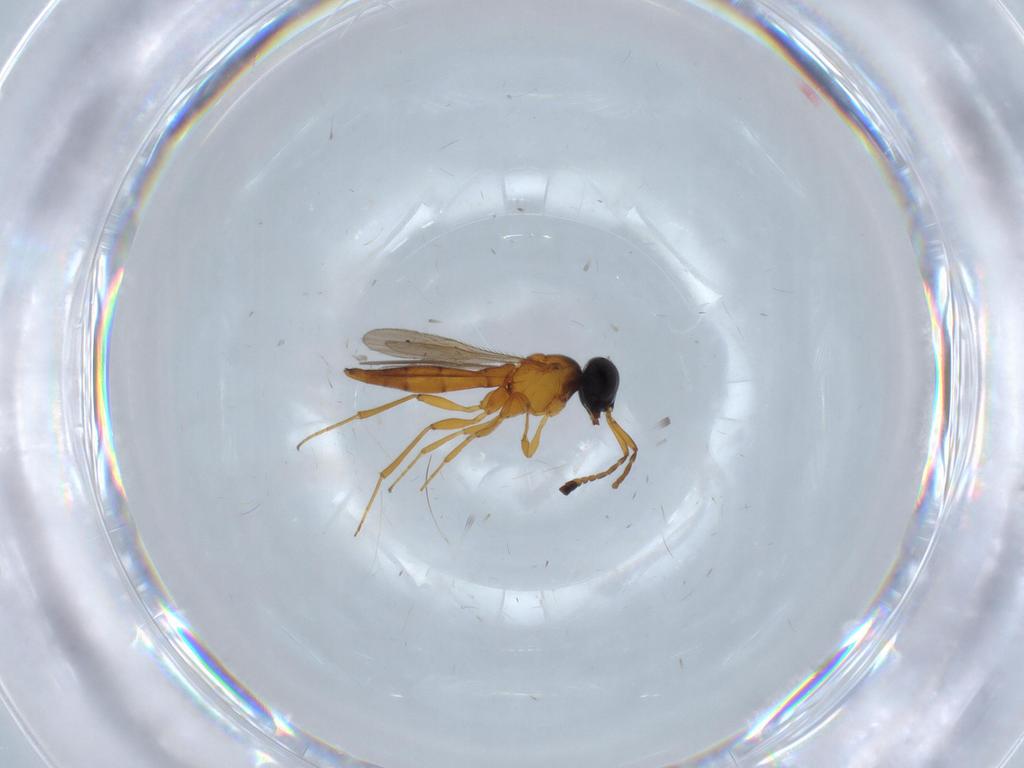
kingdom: Animalia
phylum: Arthropoda
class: Insecta
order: Hymenoptera
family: Scelionidae
